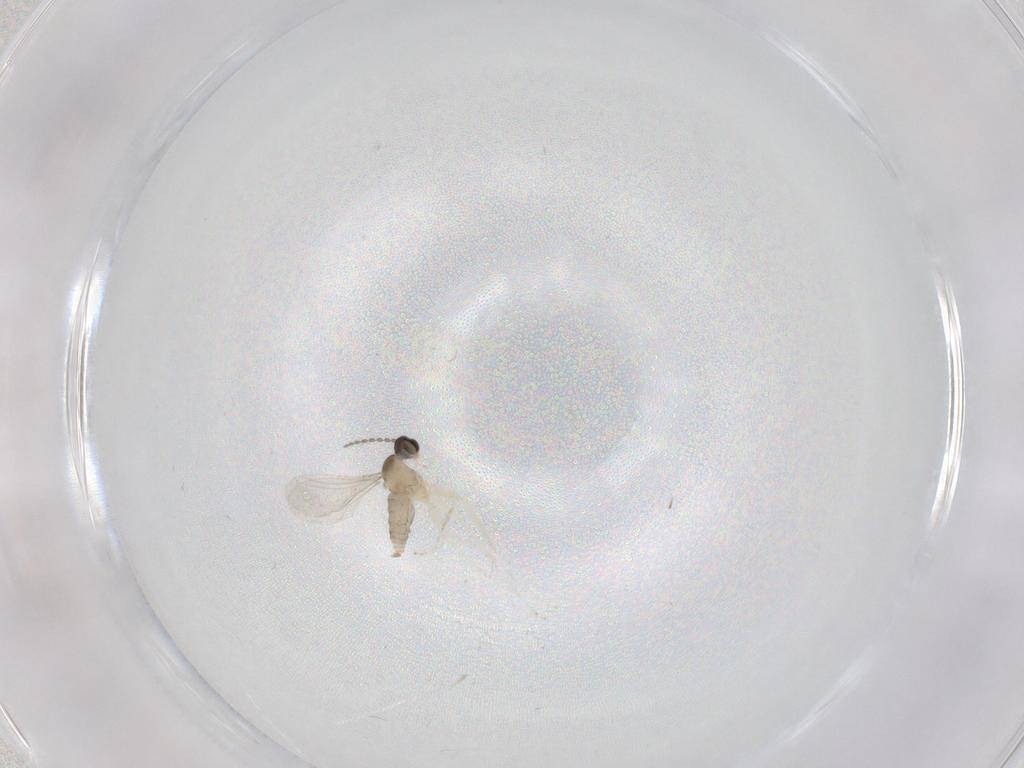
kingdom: Animalia
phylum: Arthropoda
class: Insecta
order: Diptera
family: Cecidomyiidae
